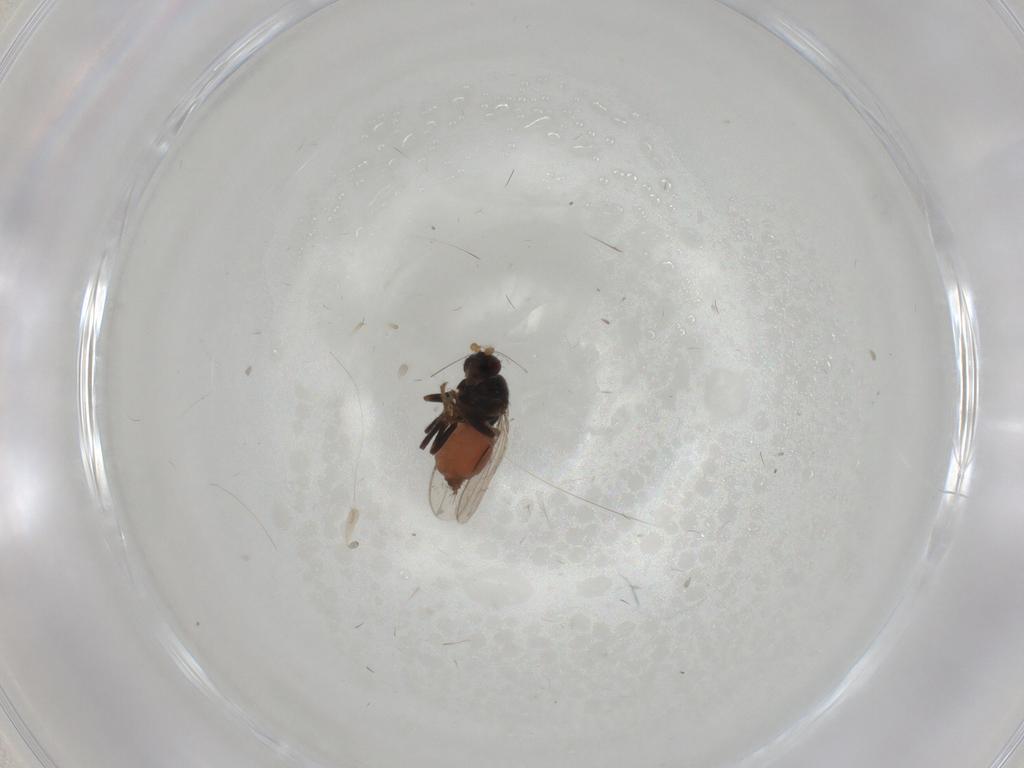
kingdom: Animalia
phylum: Arthropoda
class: Insecta
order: Diptera
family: Sphaeroceridae
